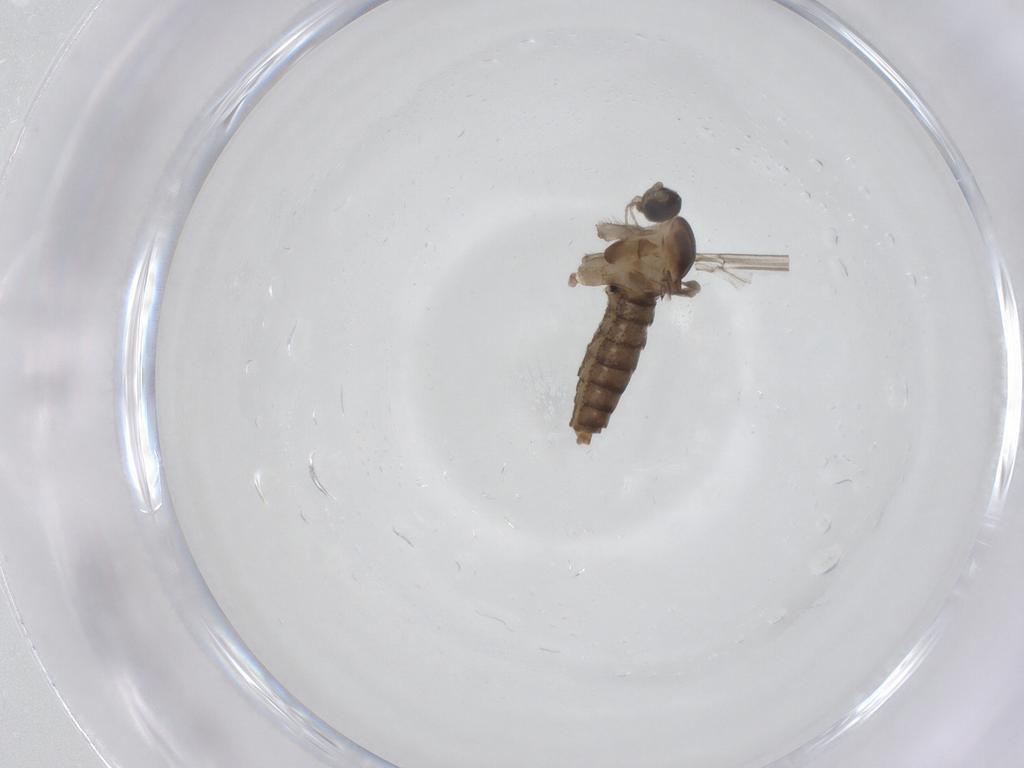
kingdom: Animalia
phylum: Arthropoda
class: Insecta
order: Diptera
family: Cecidomyiidae
